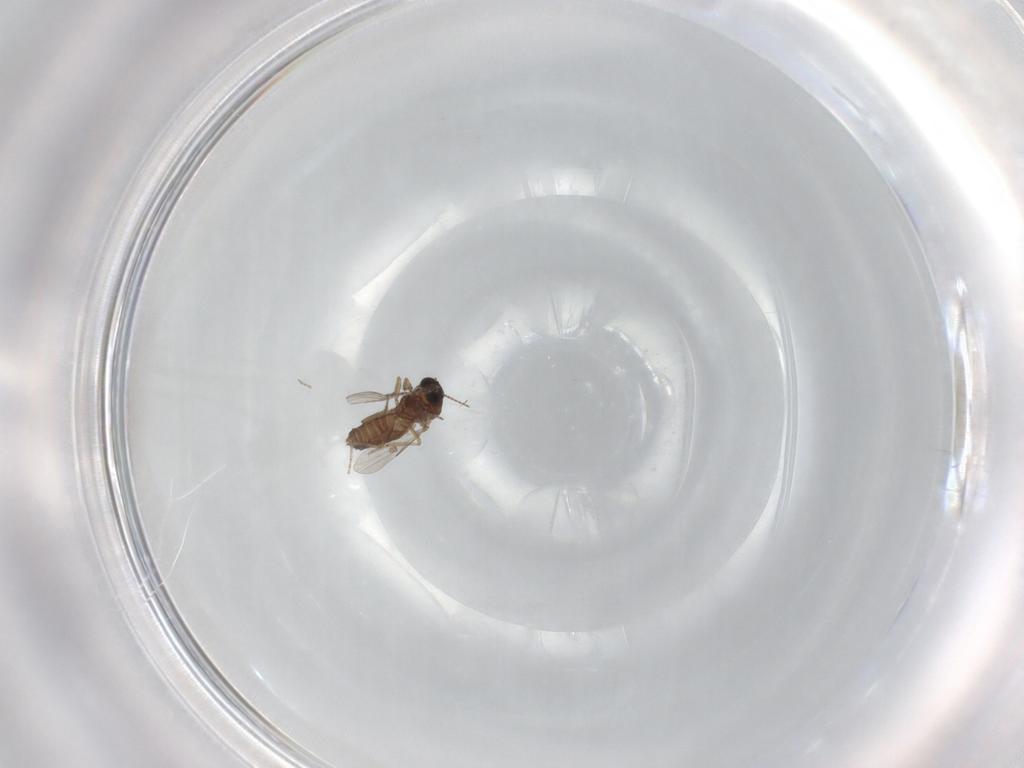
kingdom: Animalia
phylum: Arthropoda
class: Insecta
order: Diptera
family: Ceratopogonidae
